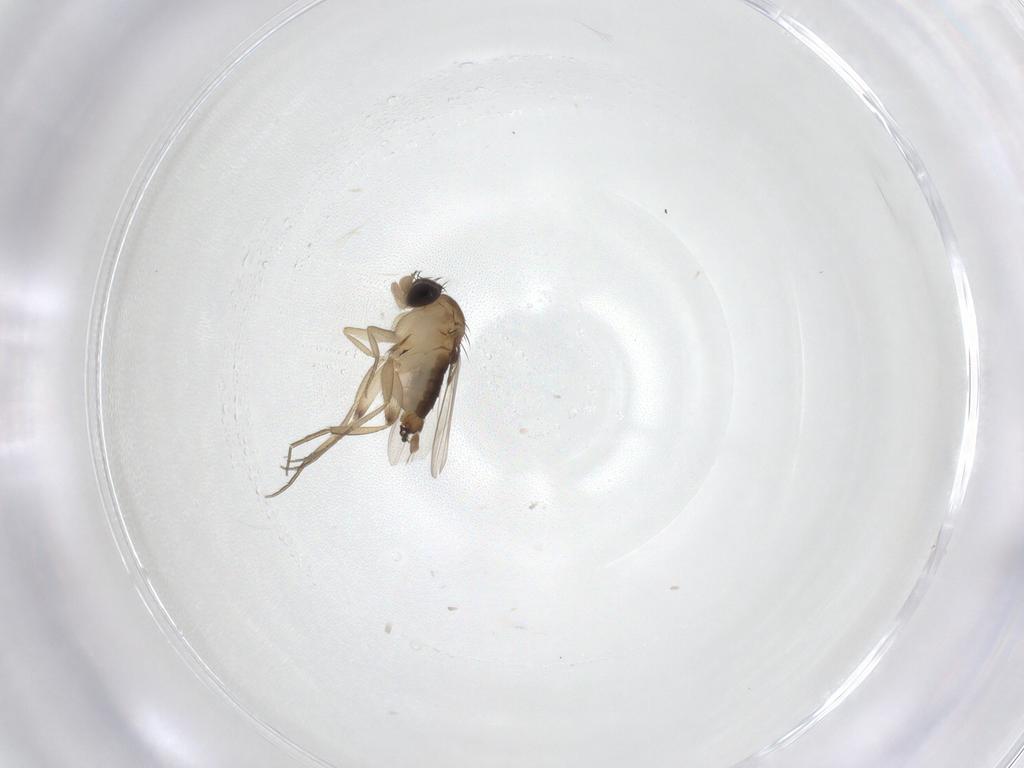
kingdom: Animalia
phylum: Arthropoda
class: Insecta
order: Diptera
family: Phoridae
